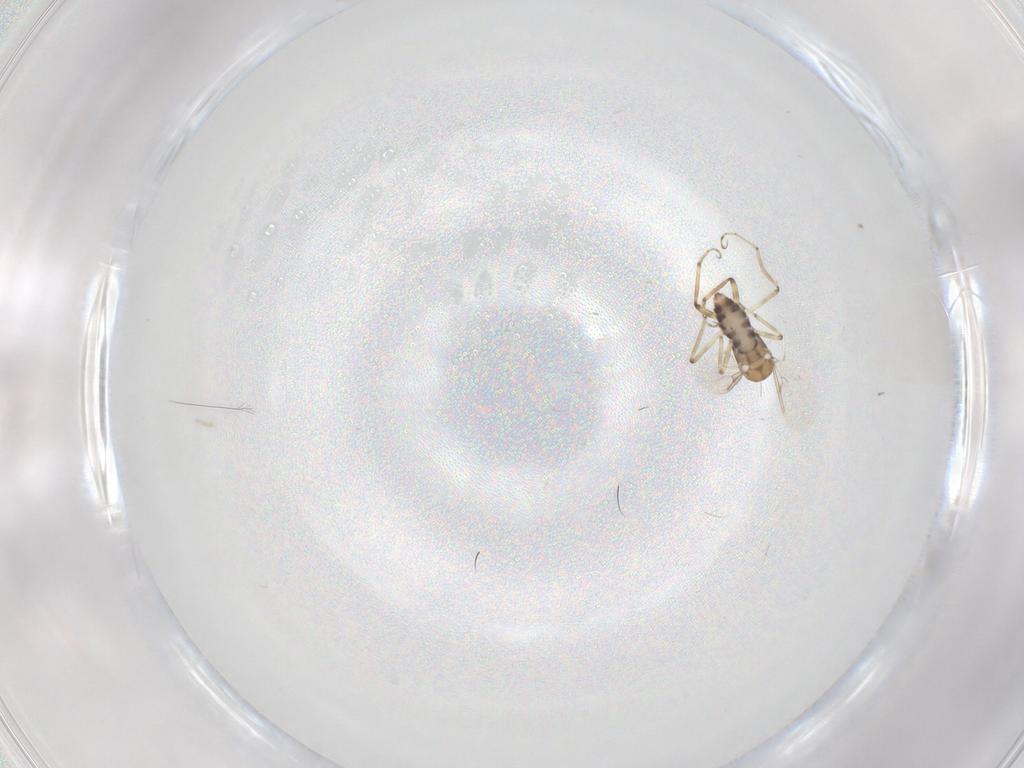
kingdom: Animalia
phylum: Arthropoda
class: Insecta
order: Diptera
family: Ceratopogonidae
